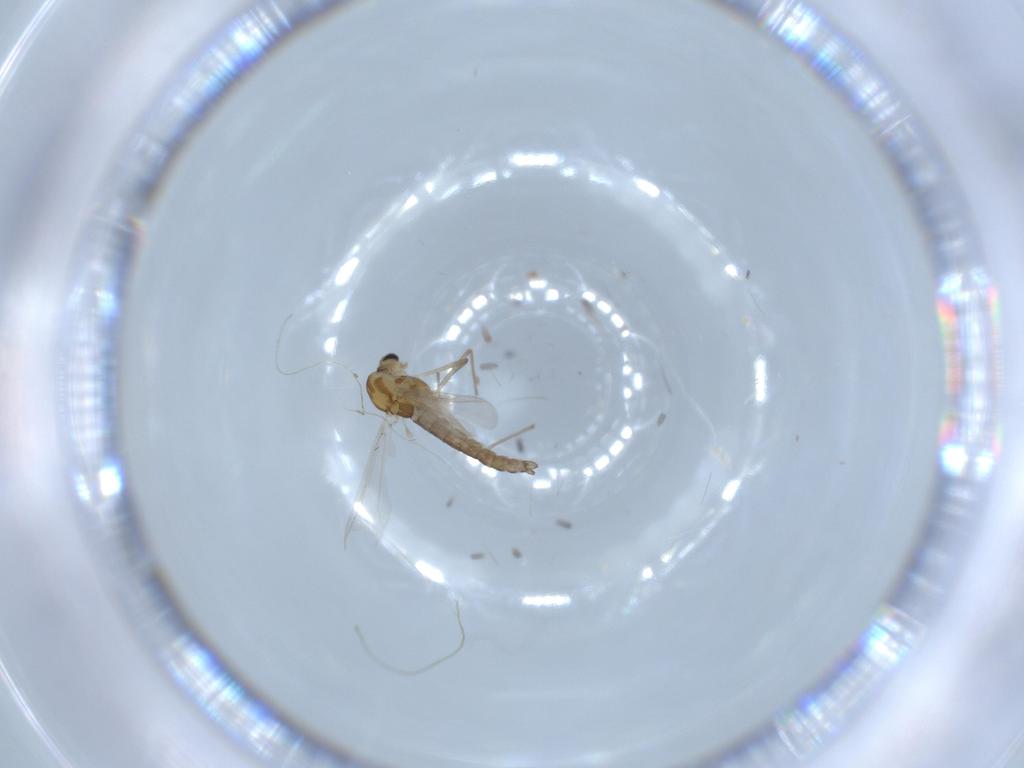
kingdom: Animalia
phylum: Arthropoda
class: Insecta
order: Diptera
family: Chironomidae
